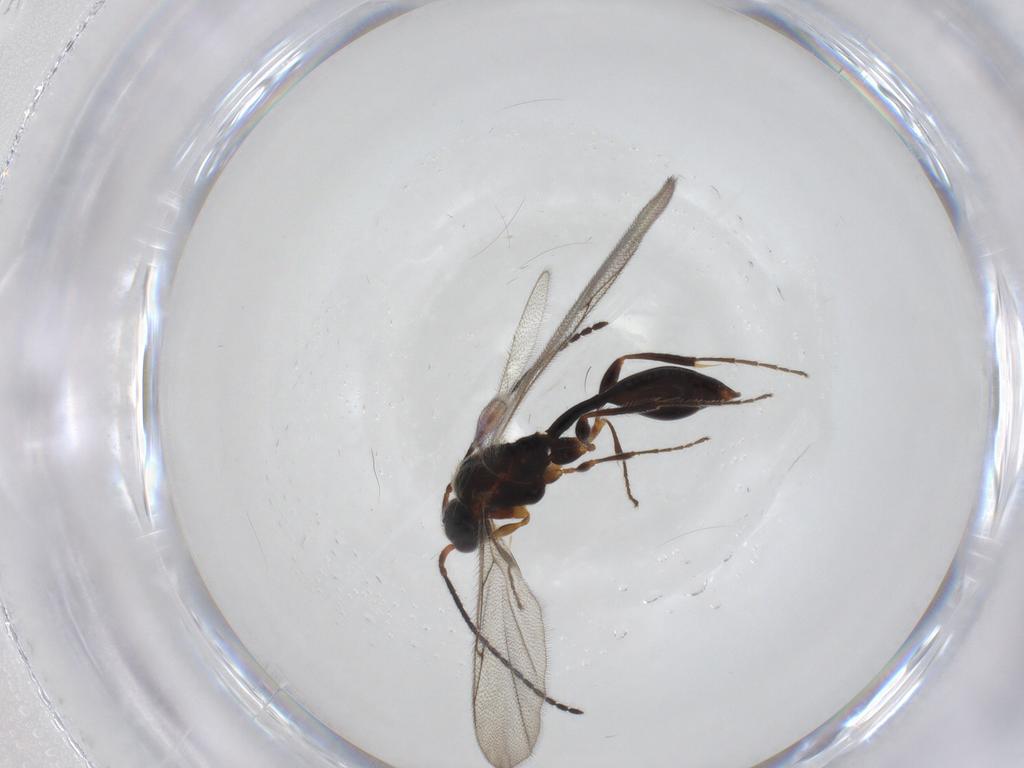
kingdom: Animalia
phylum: Arthropoda
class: Insecta
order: Hymenoptera
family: Diapriidae
